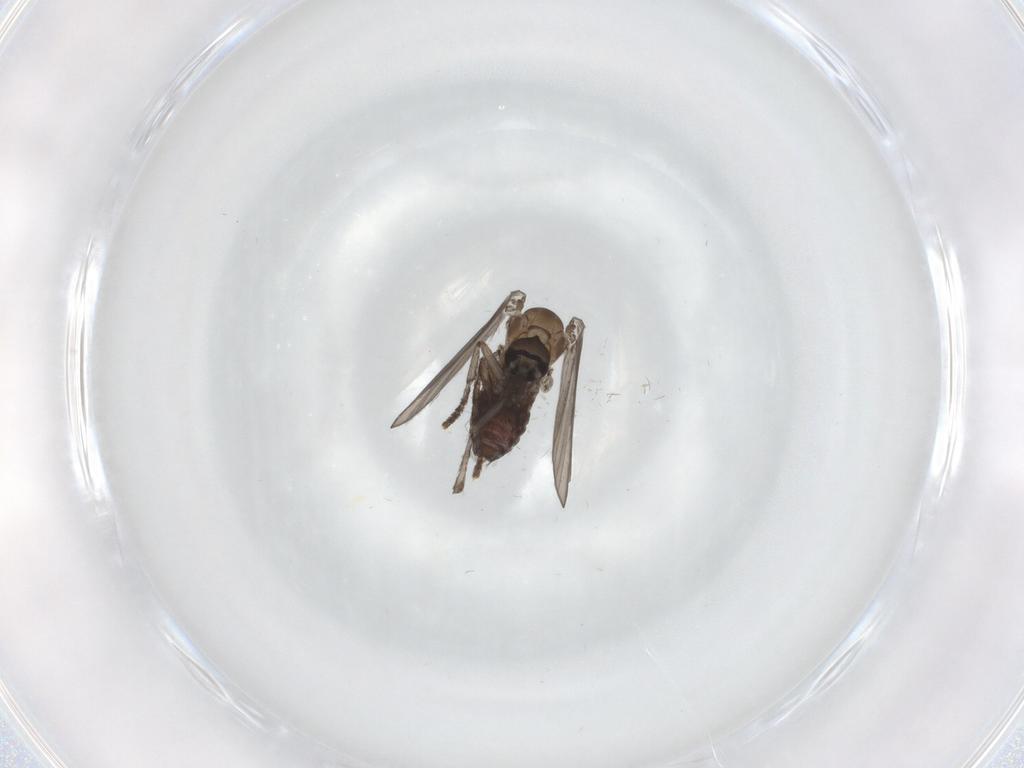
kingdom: Animalia
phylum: Arthropoda
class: Insecta
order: Diptera
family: Psychodidae
